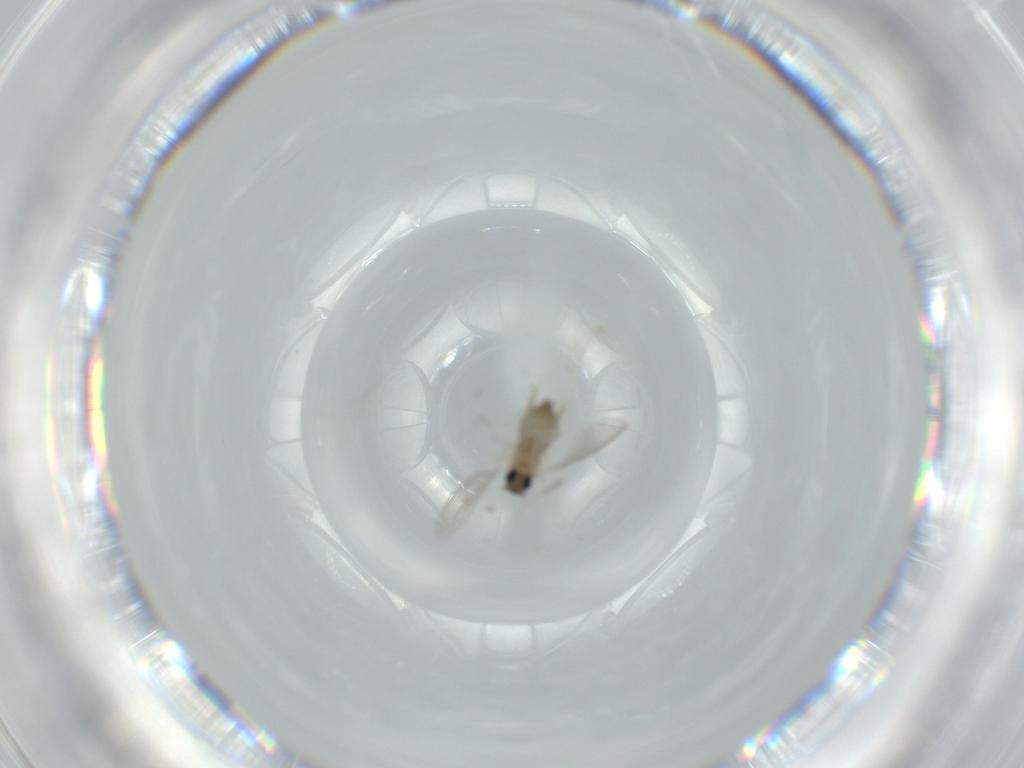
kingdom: Animalia
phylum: Arthropoda
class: Insecta
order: Diptera
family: Cecidomyiidae
